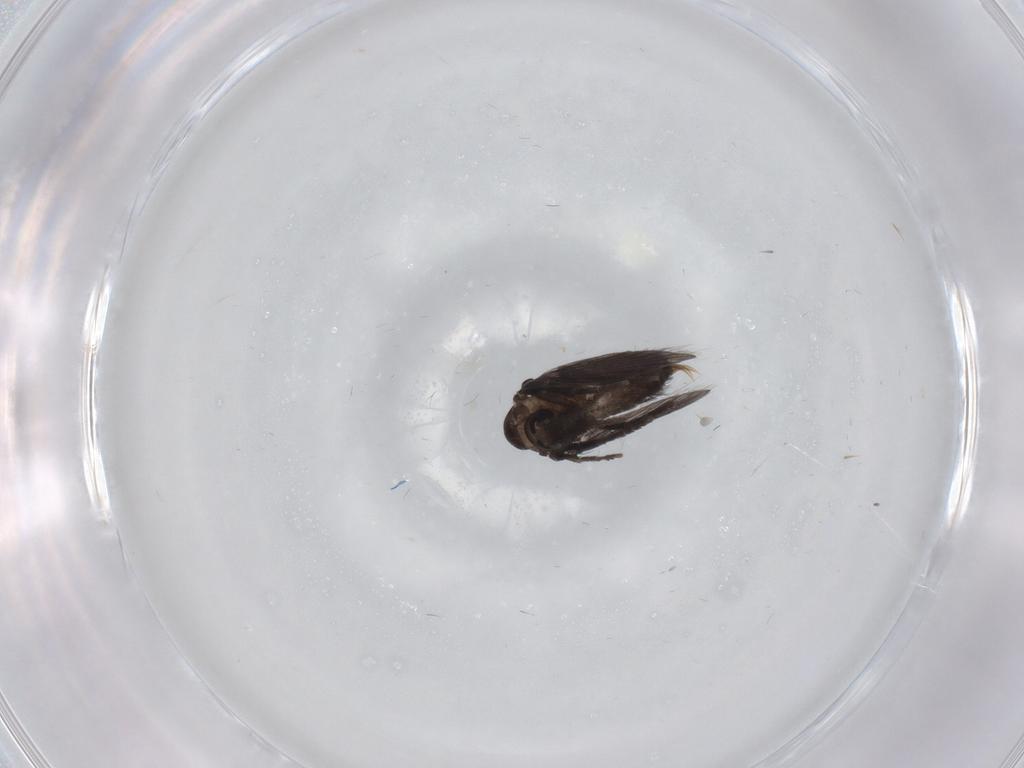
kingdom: Animalia
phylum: Arthropoda
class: Insecta
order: Diptera
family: Psychodidae
